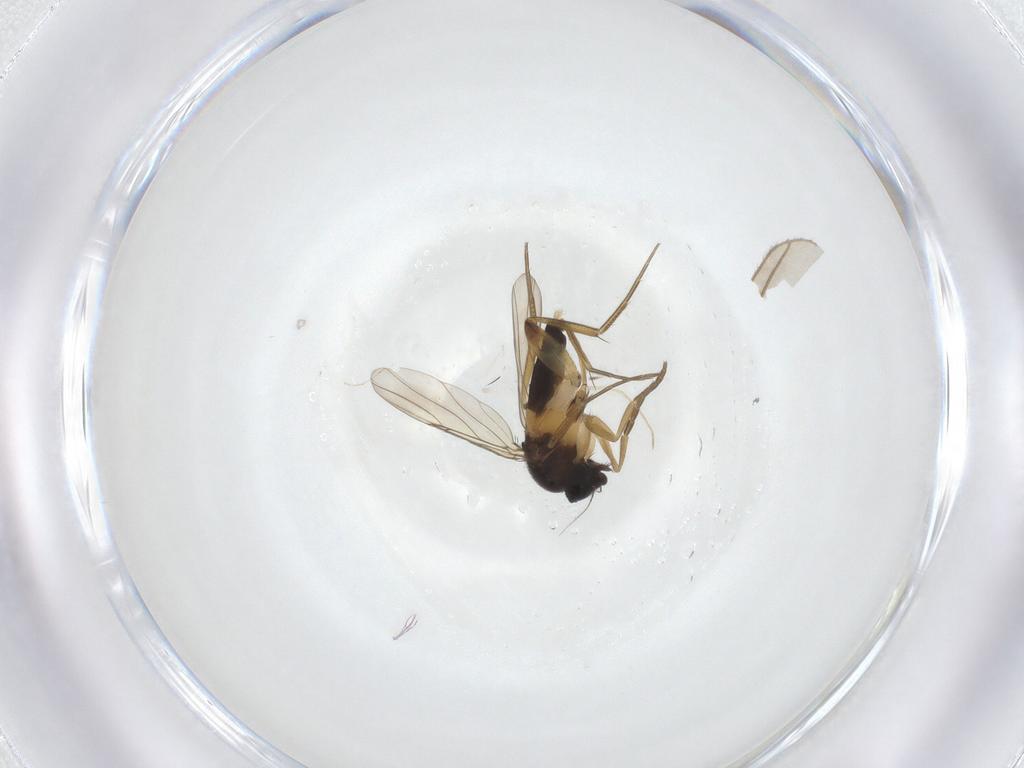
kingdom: Animalia
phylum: Arthropoda
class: Insecta
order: Diptera
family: Phoridae
